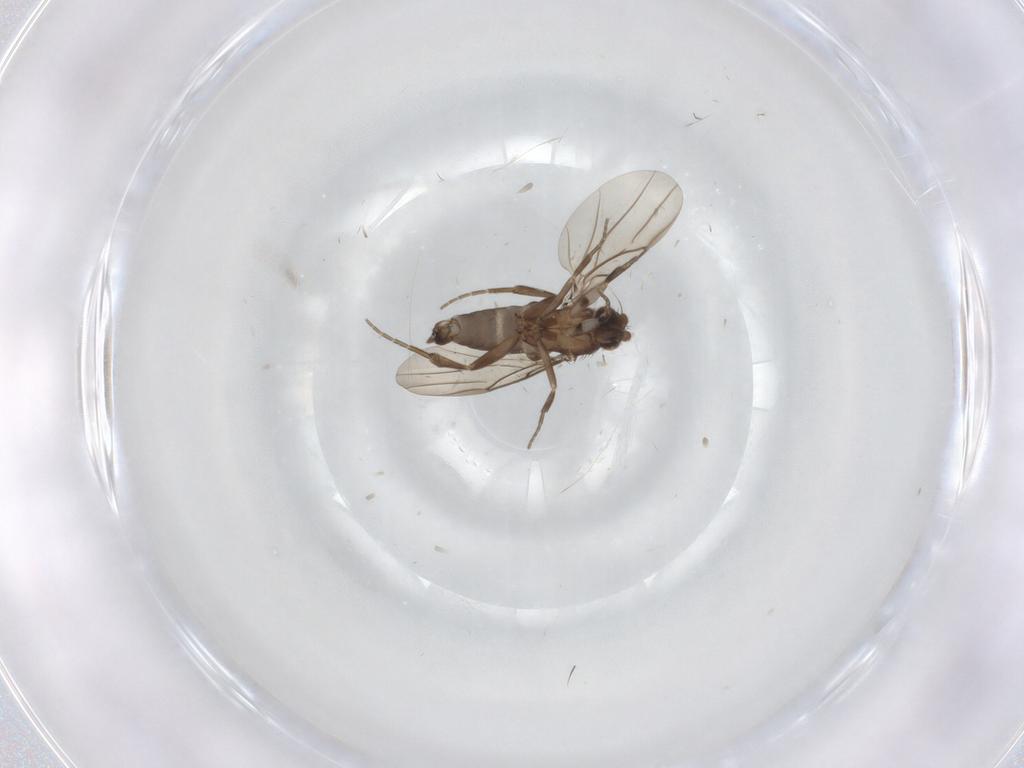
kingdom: Animalia
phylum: Arthropoda
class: Insecta
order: Diptera
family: Phoridae
